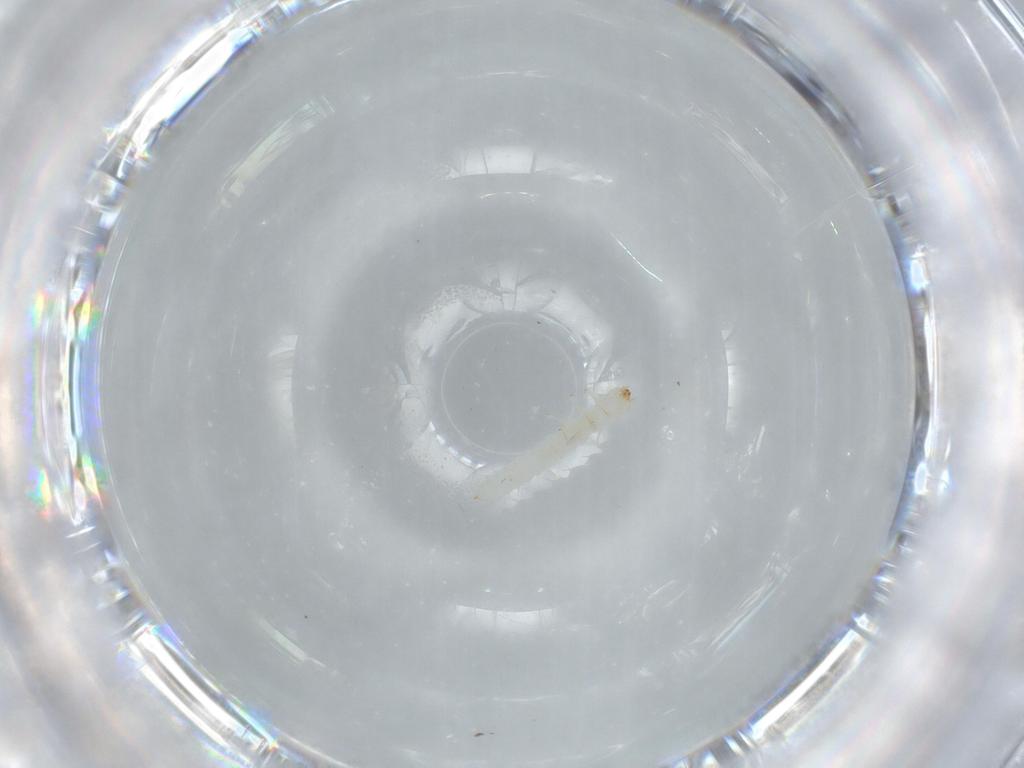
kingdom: Animalia
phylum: Arthropoda
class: Insecta
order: Coleoptera
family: Micromalthidae
